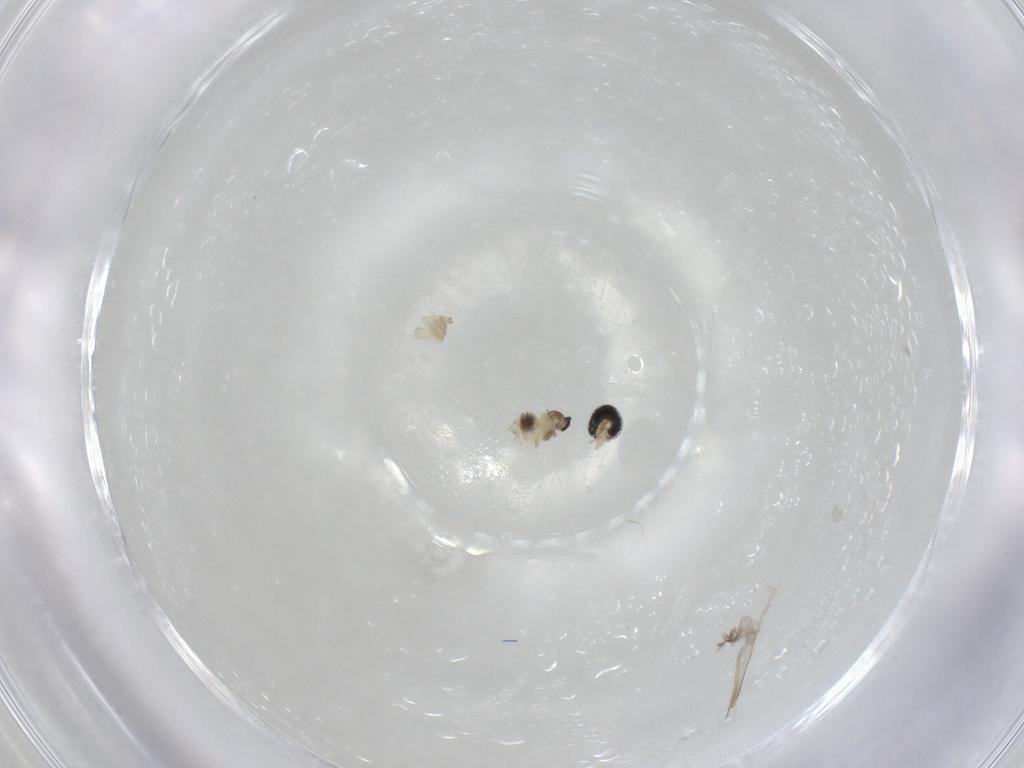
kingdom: Animalia
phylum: Arthropoda
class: Insecta
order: Diptera
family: Cecidomyiidae
